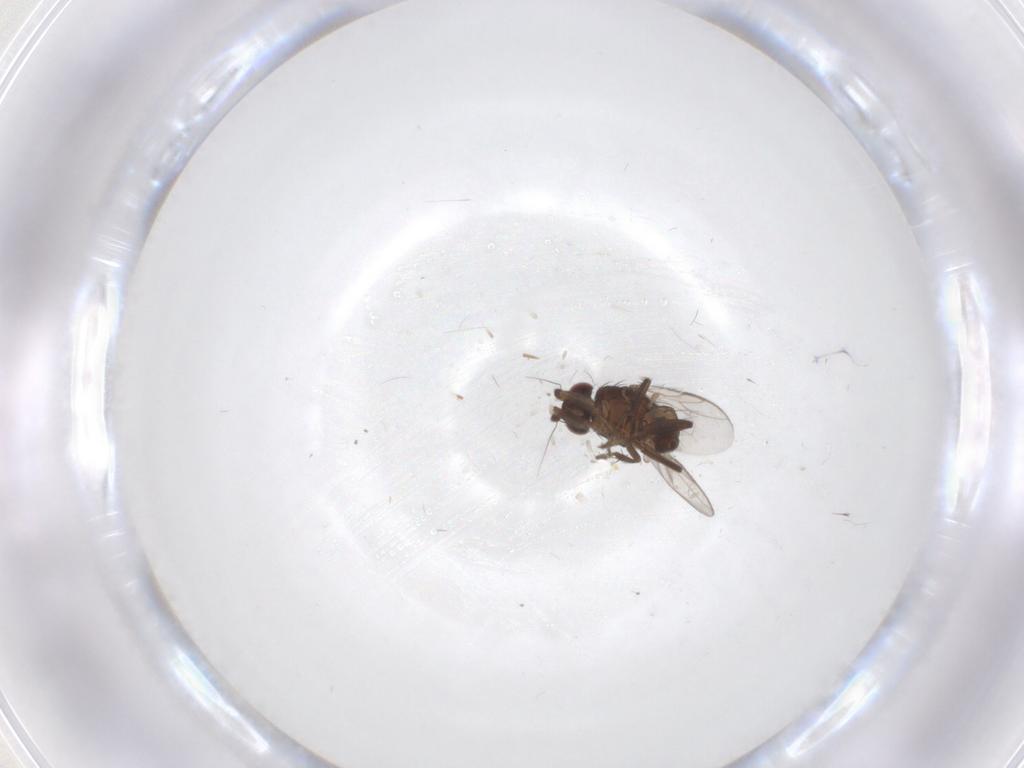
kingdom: Animalia
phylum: Arthropoda
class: Insecta
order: Diptera
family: Sphaeroceridae
